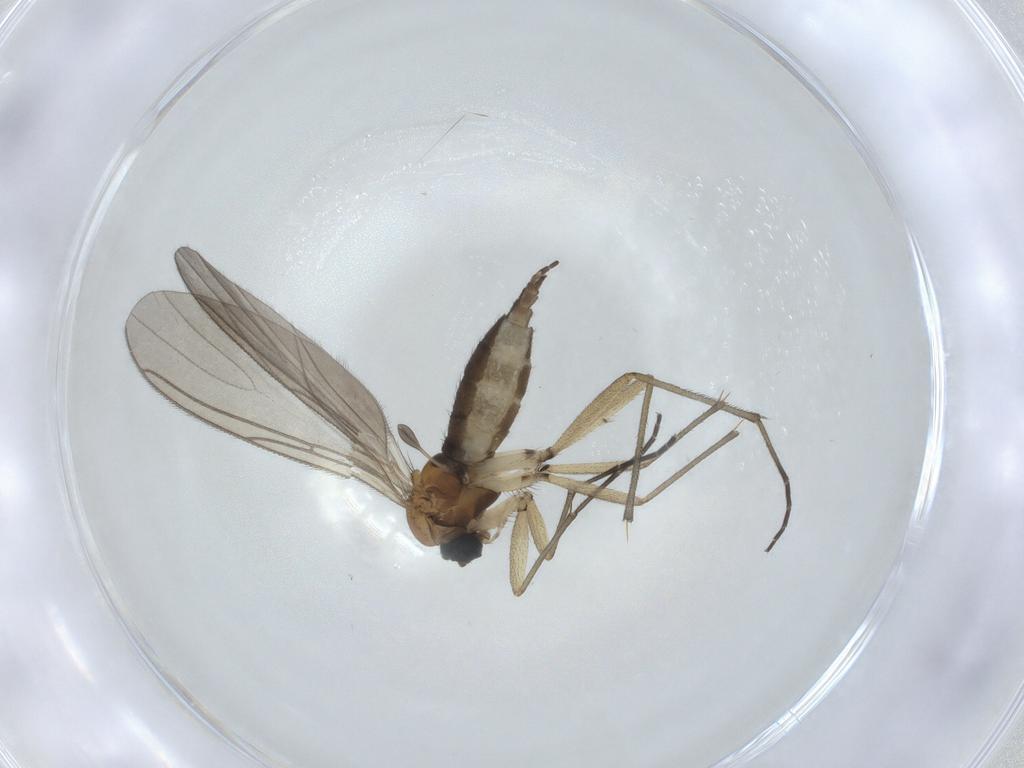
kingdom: Animalia
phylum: Arthropoda
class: Insecta
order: Diptera
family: Sciaridae
